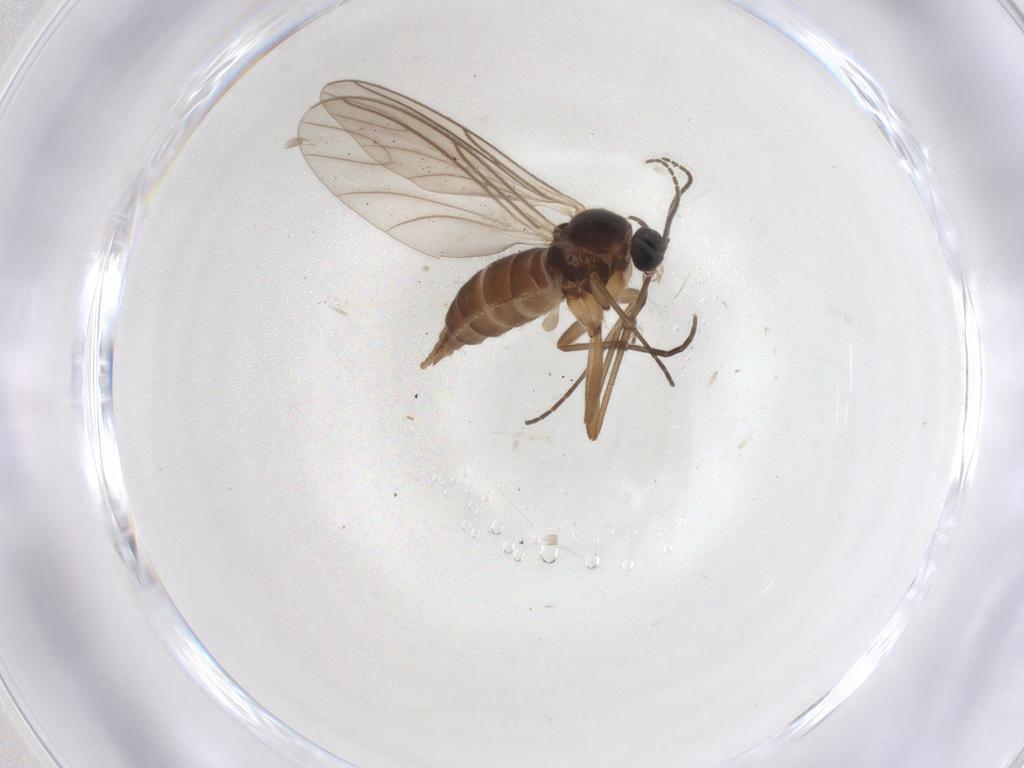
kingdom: Animalia
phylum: Arthropoda
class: Insecta
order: Diptera
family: Sciaridae
